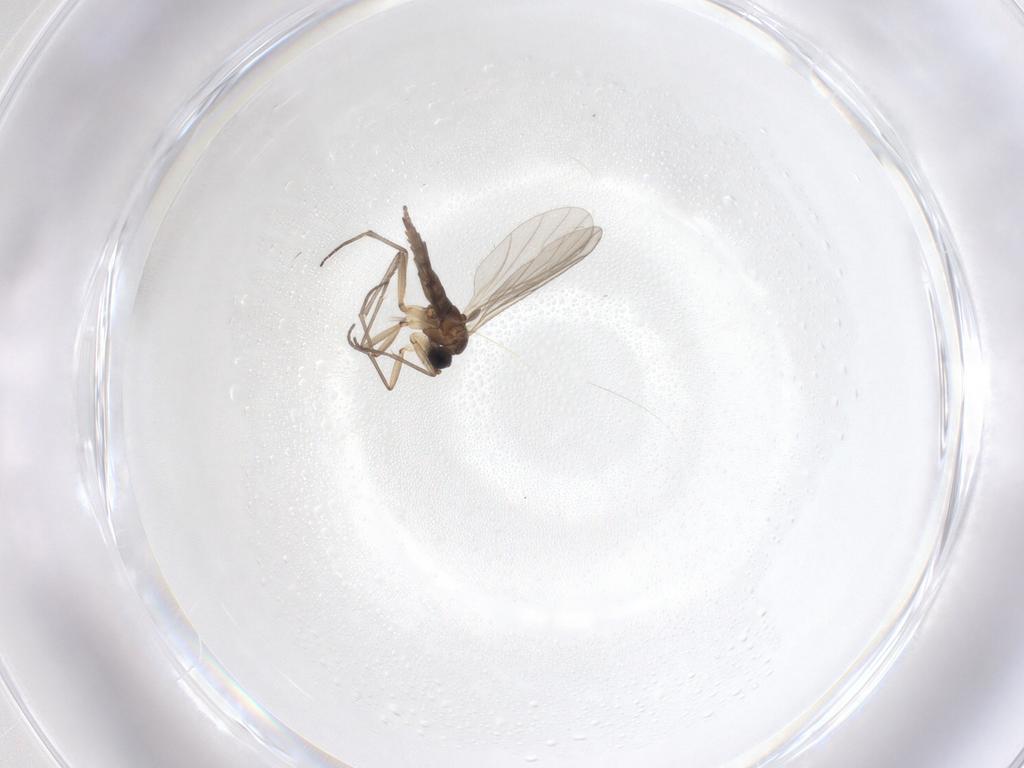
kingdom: Animalia
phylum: Arthropoda
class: Insecta
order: Diptera
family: Sciaridae
